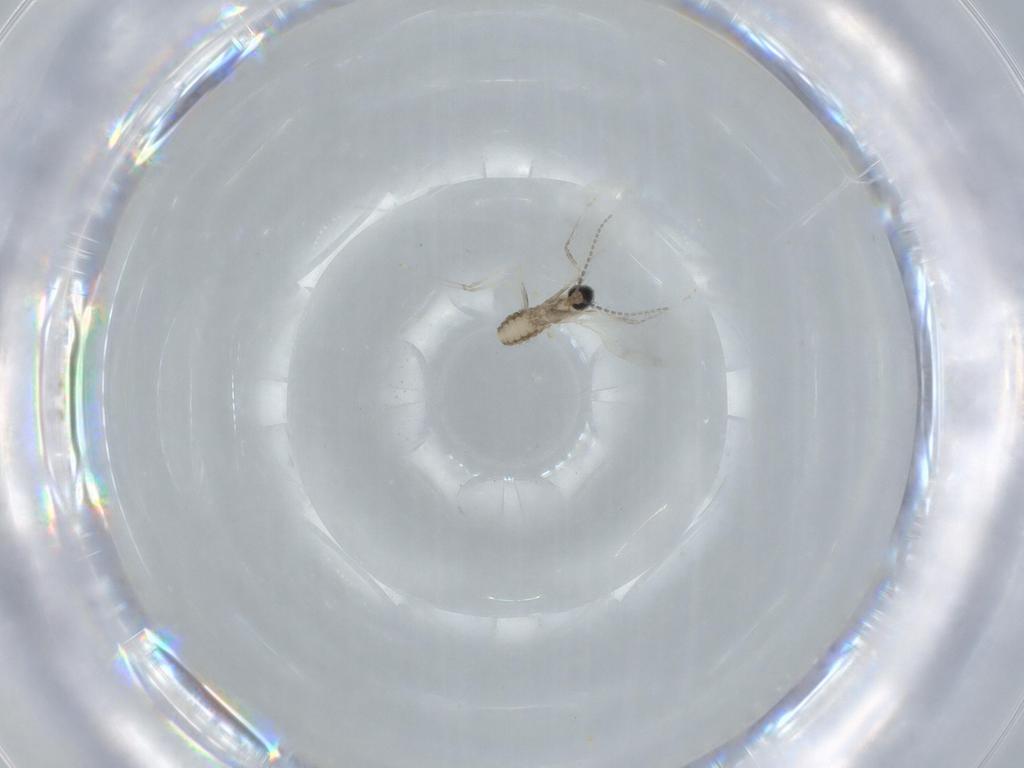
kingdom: Animalia
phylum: Arthropoda
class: Insecta
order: Diptera
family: Cecidomyiidae
